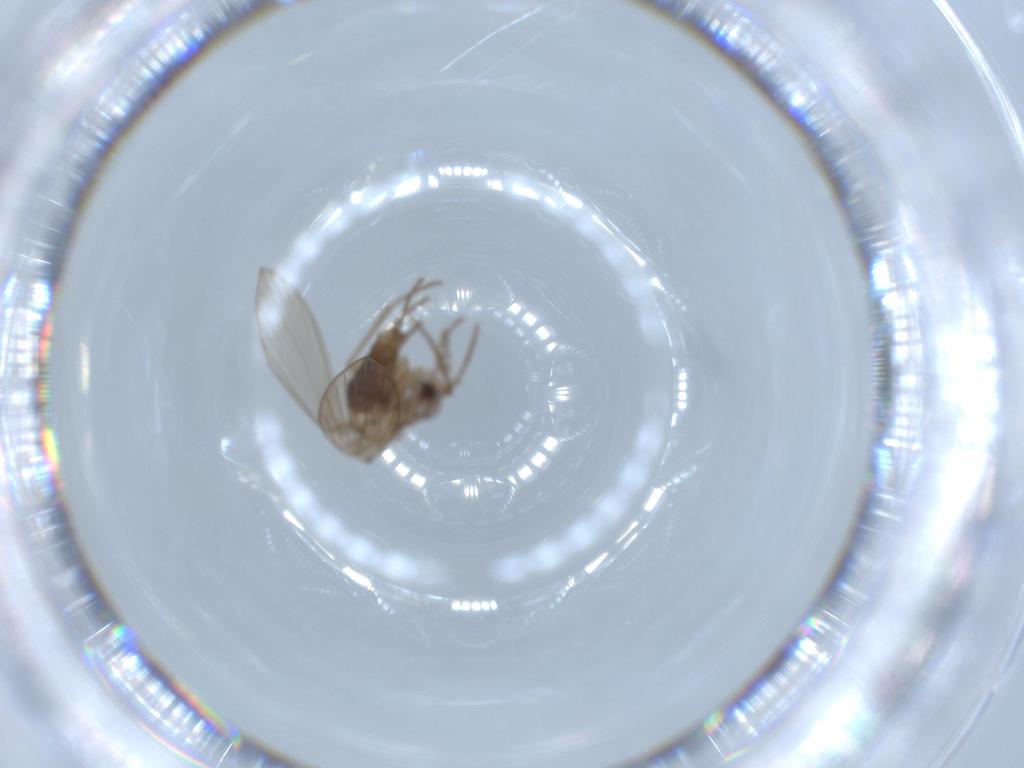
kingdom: Animalia
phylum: Arthropoda
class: Insecta
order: Diptera
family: Psychodidae
